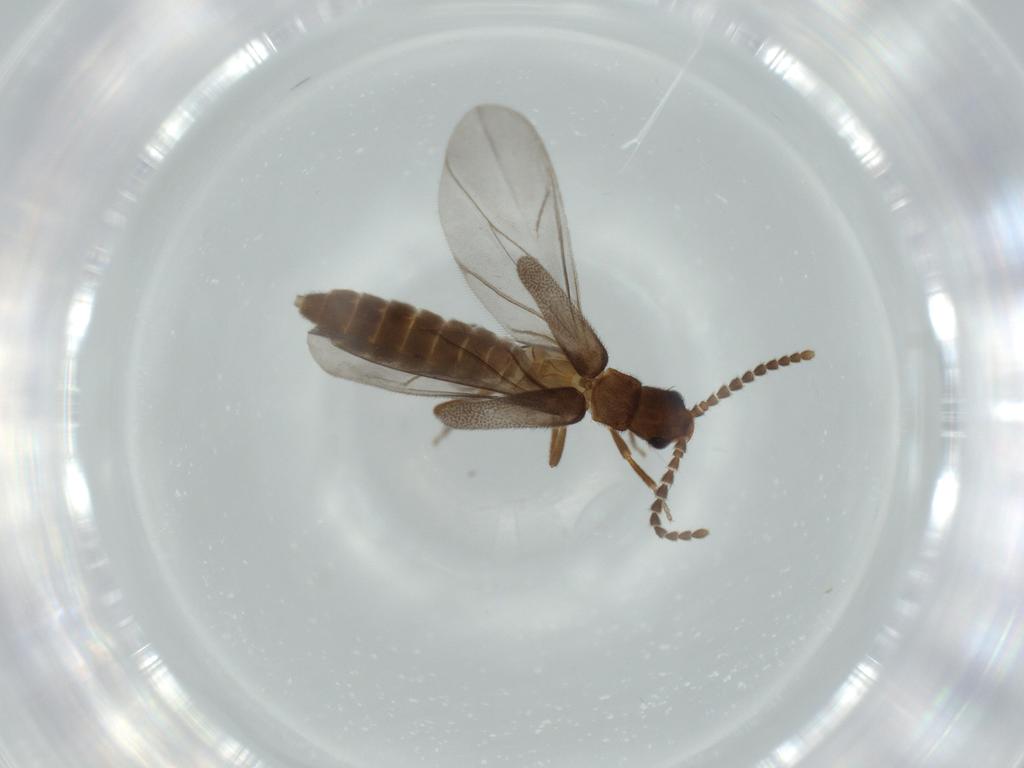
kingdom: Animalia
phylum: Arthropoda
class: Insecta
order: Coleoptera
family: Omethidae
